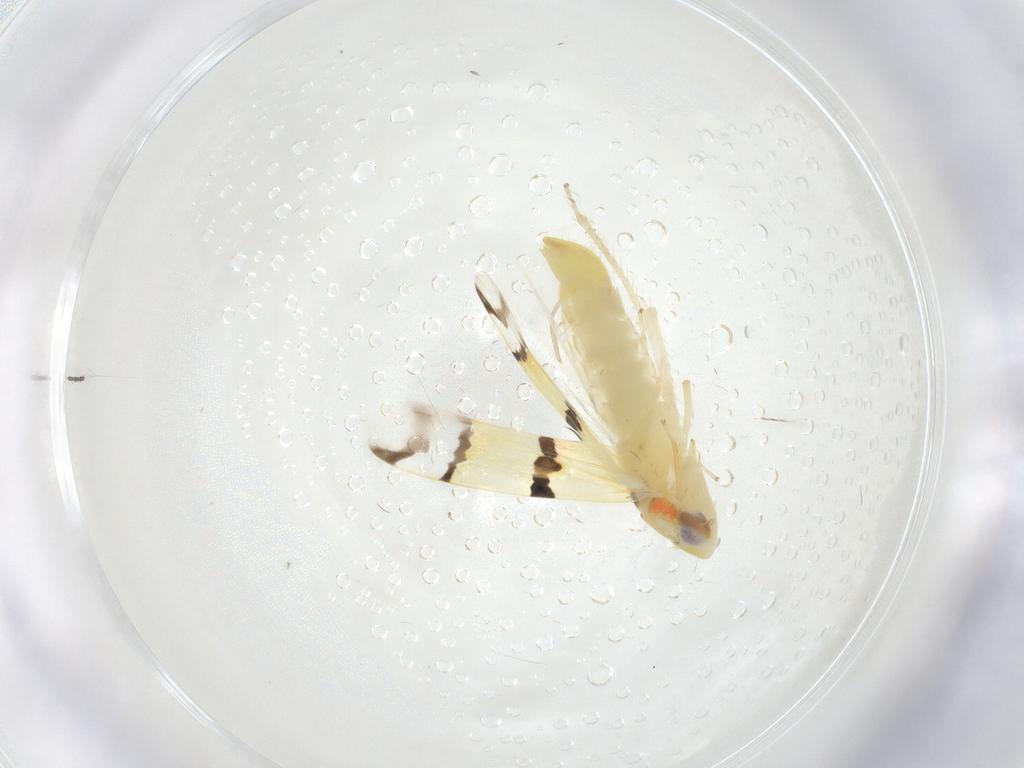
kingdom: Animalia
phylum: Arthropoda
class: Insecta
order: Hemiptera
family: Cicadellidae
